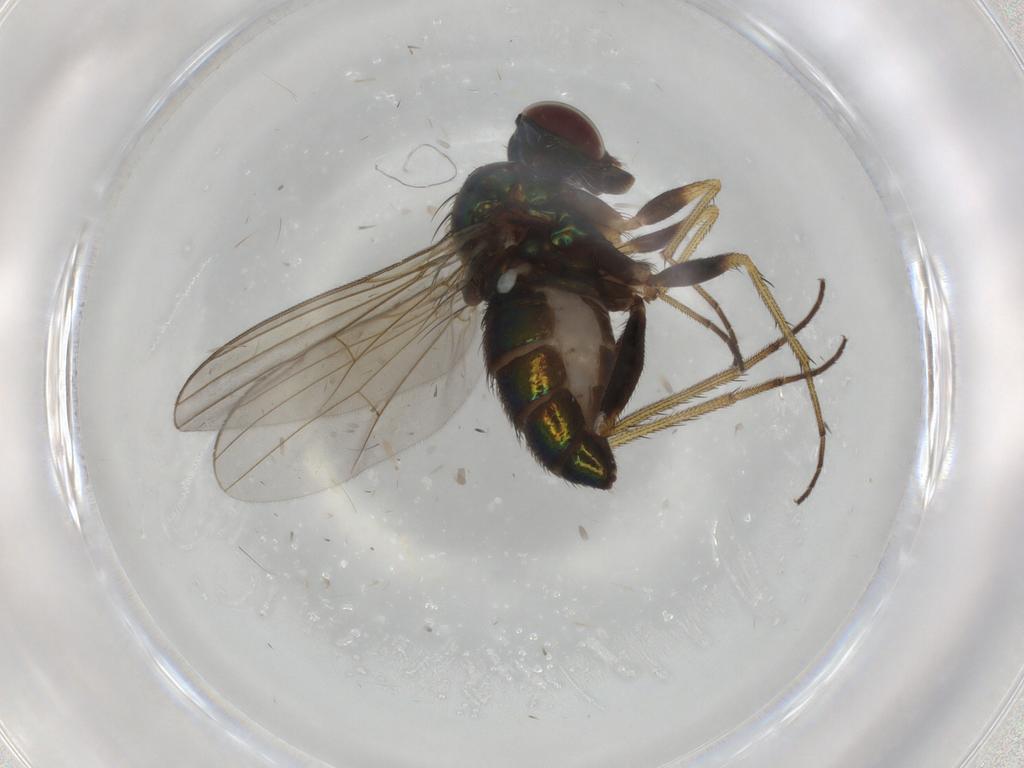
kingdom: Animalia
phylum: Arthropoda
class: Insecta
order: Diptera
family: Dolichopodidae
